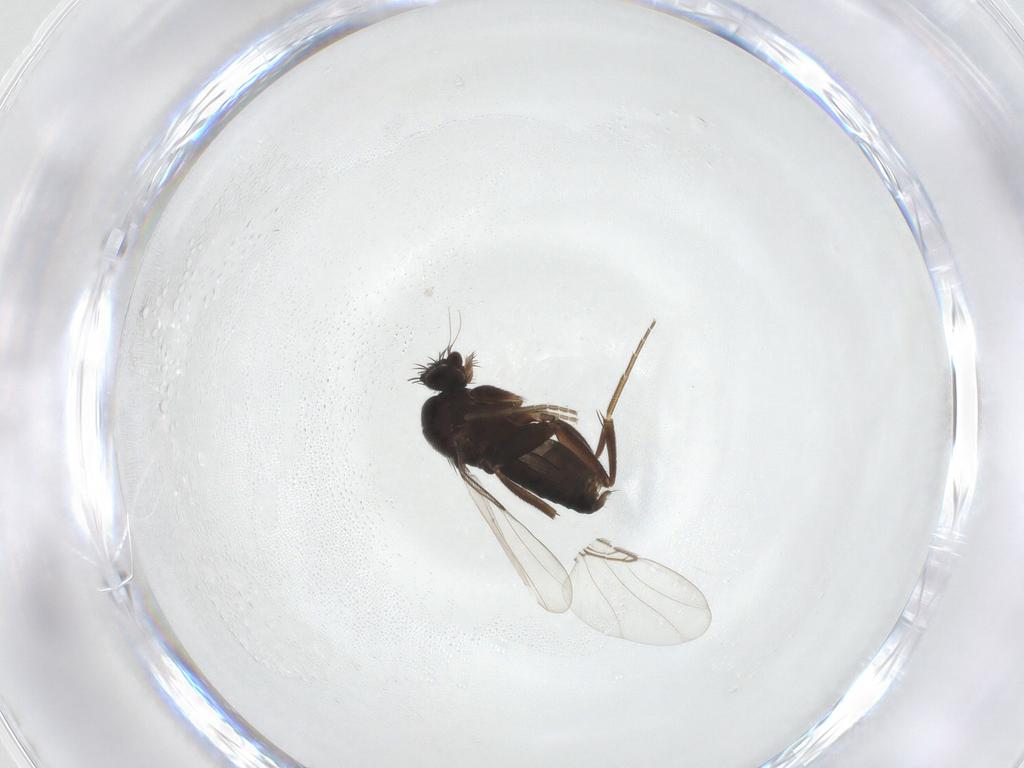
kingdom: Animalia
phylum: Arthropoda
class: Insecta
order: Diptera
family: Phoridae
